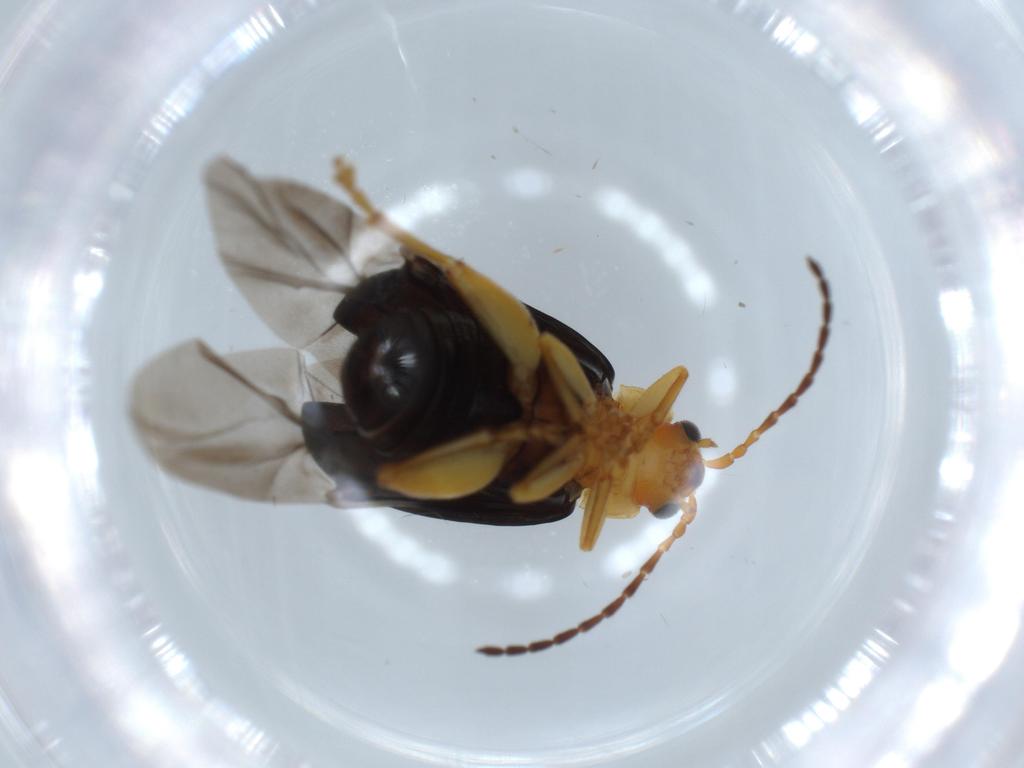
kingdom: Animalia
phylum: Arthropoda
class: Insecta
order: Coleoptera
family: Chrysomelidae
